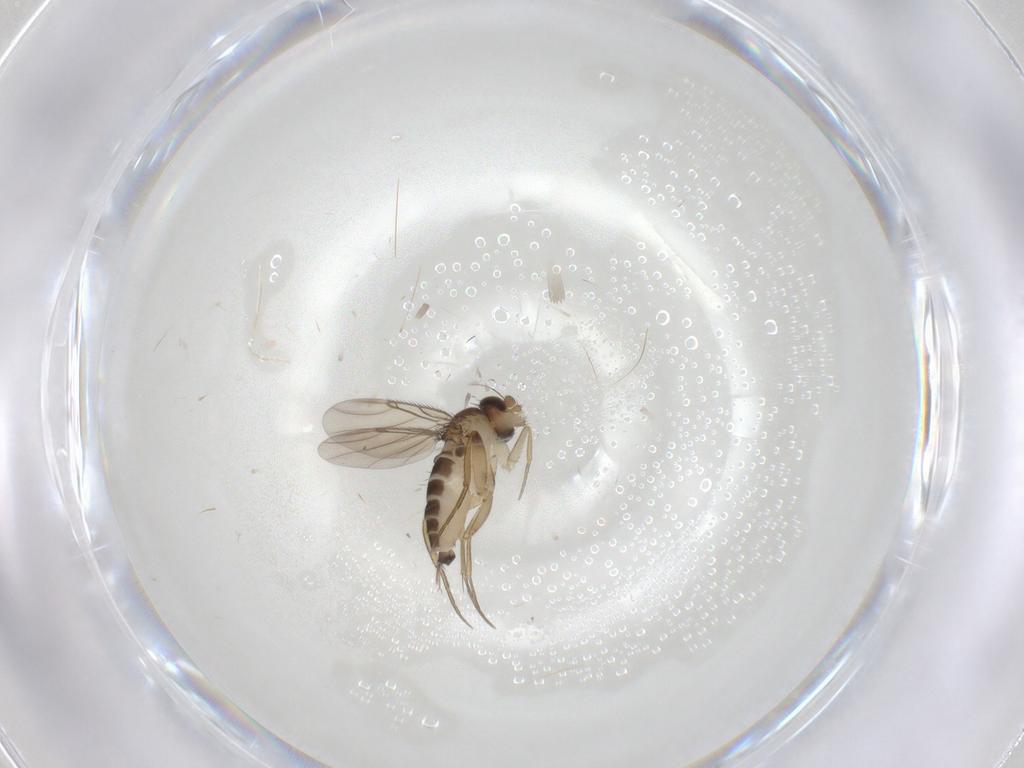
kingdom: Animalia
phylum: Arthropoda
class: Insecta
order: Diptera
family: Phoridae
